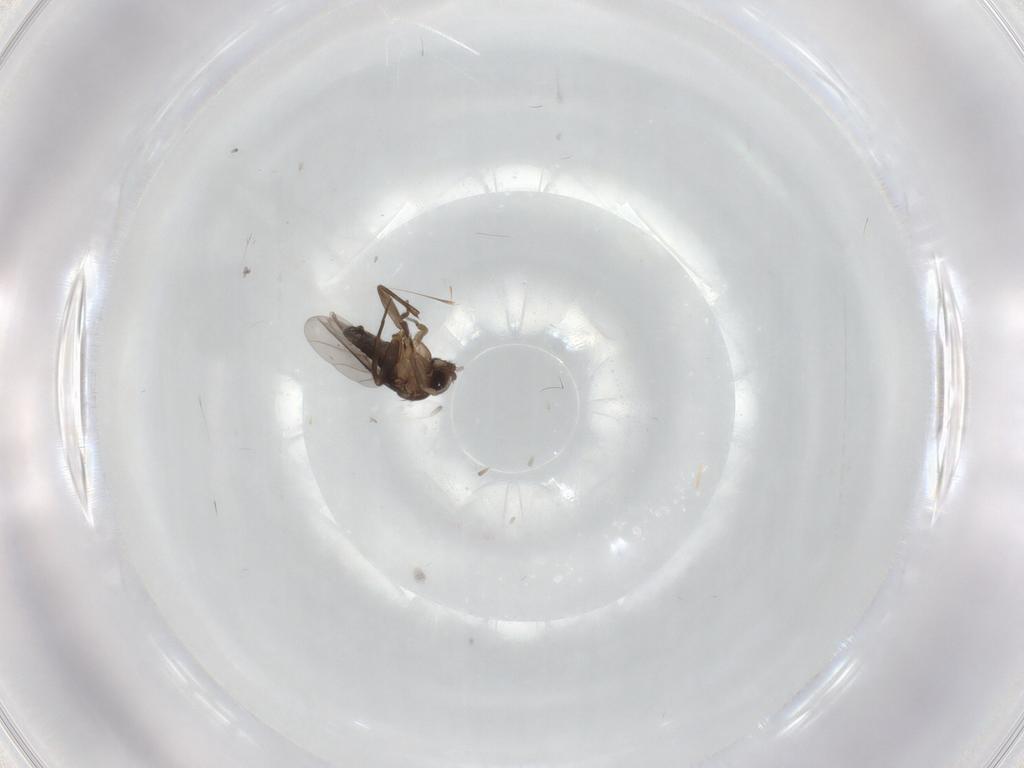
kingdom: Animalia
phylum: Arthropoda
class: Insecta
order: Diptera
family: Phoridae
